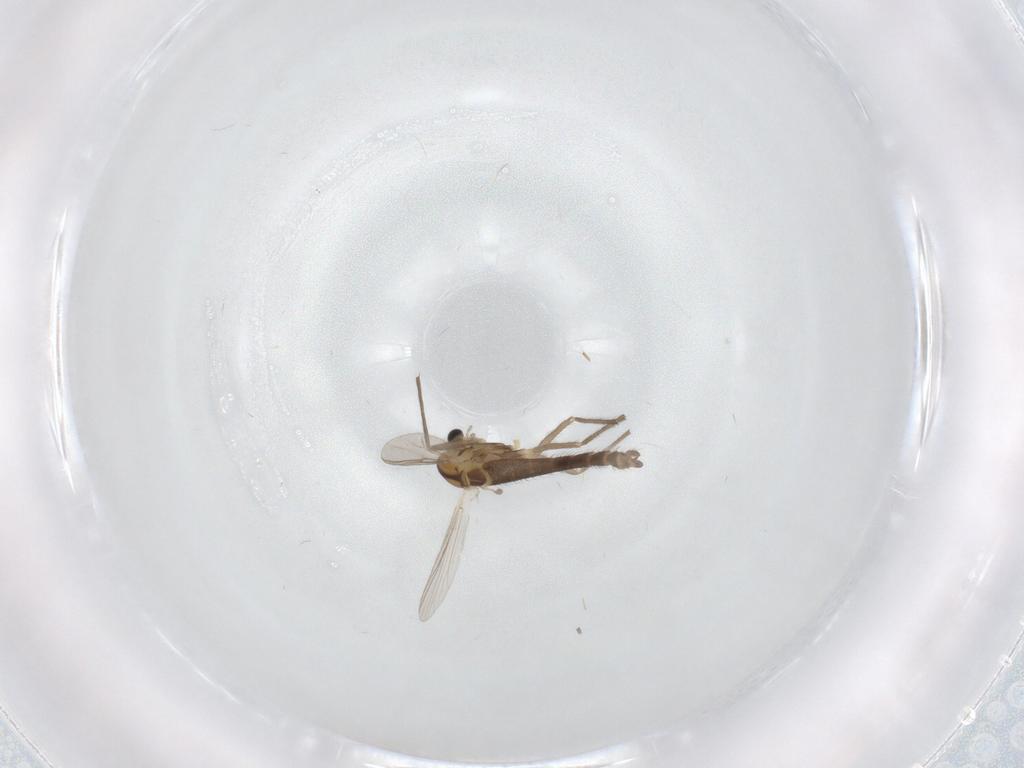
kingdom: Animalia
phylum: Arthropoda
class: Insecta
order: Diptera
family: Chironomidae
